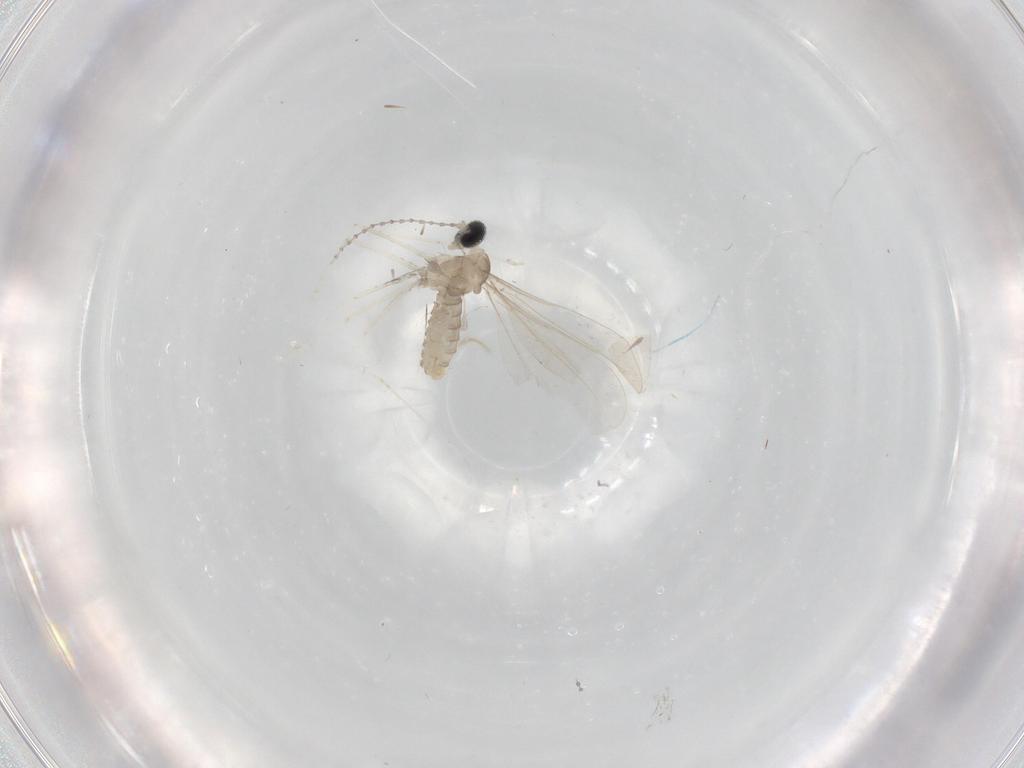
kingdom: Animalia
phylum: Arthropoda
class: Insecta
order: Diptera
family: Cecidomyiidae
